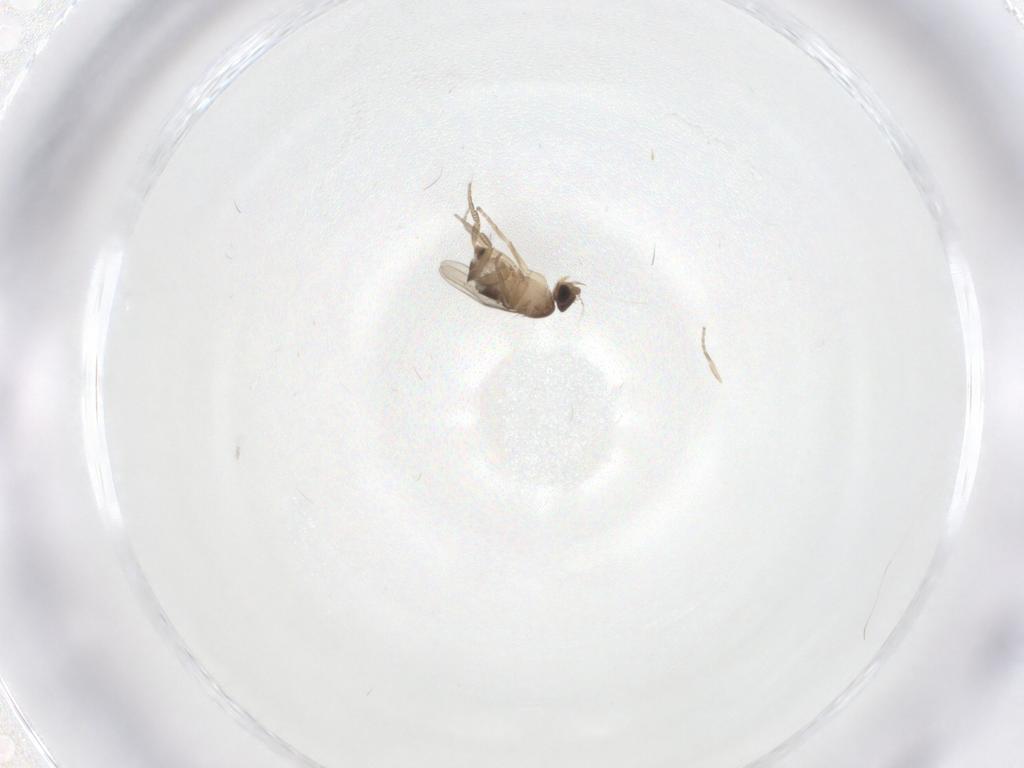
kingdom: Animalia
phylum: Arthropoda
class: Insecta
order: Diptera
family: Phoridae
